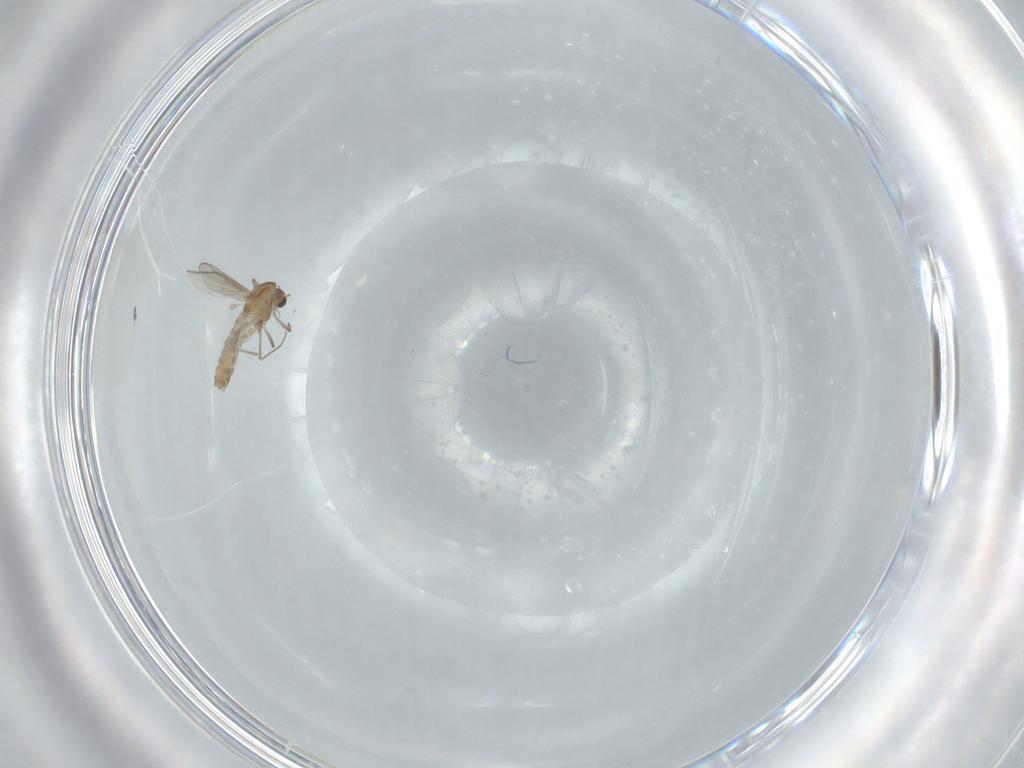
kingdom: Animalia
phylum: Arthropoda
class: Insecta
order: Diptera
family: Chironomidae
